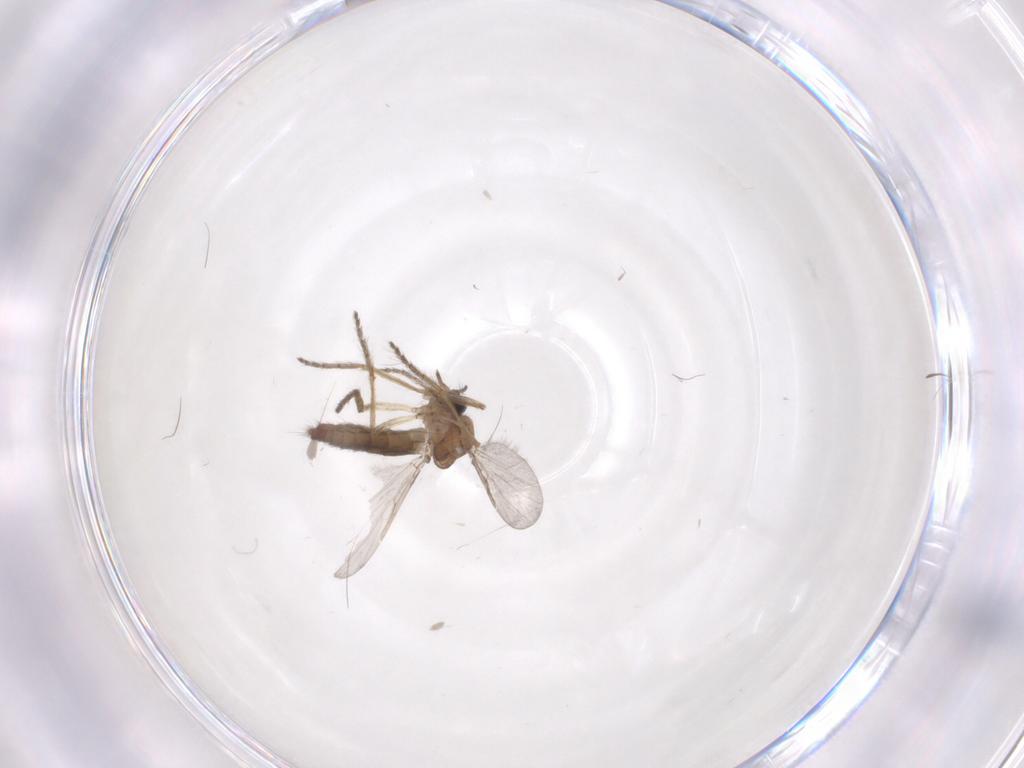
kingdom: Animalia
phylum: Arthropoda
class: Insecta
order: Diptera
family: Ceratopogonidae
